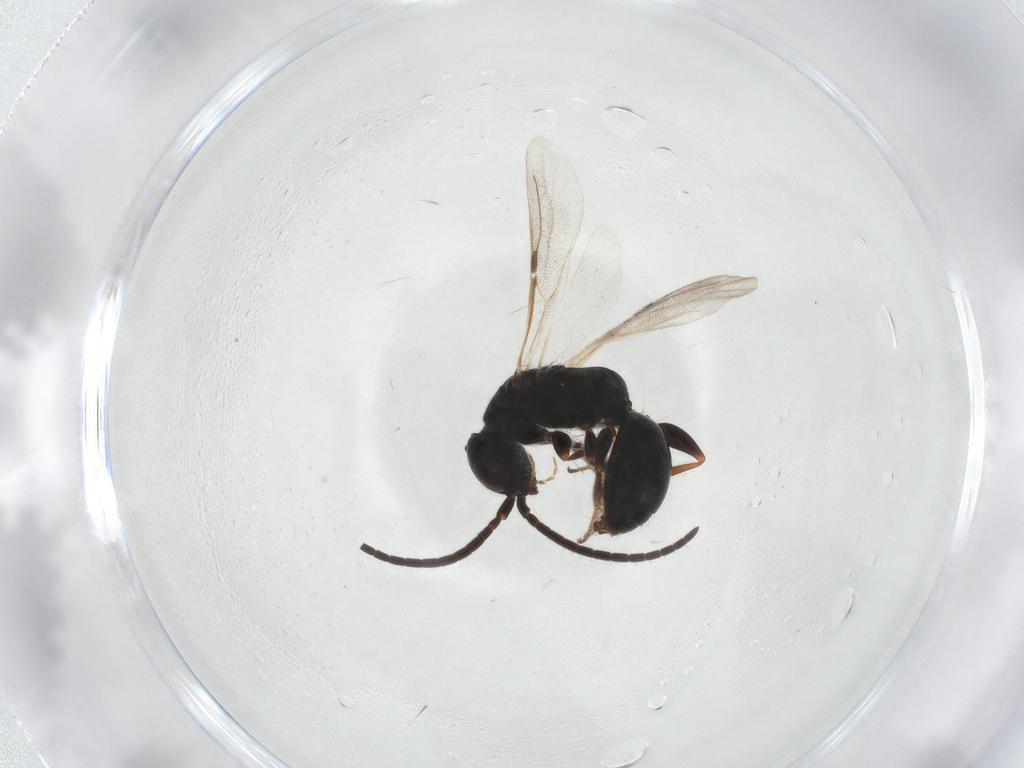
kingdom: Animalia
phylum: Arthropoda
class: Insecta
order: Hymenoptera
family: Bethylidae
